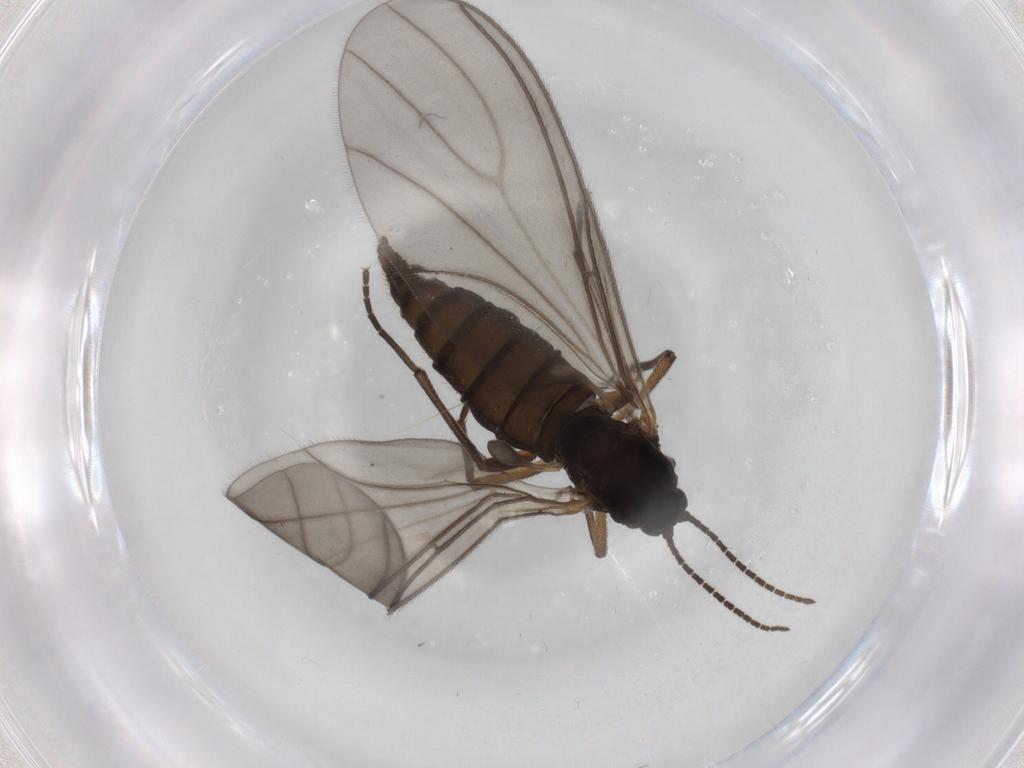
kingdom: Animalia
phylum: Arthropoda
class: Insecta
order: Diptera
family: Sciaridae
